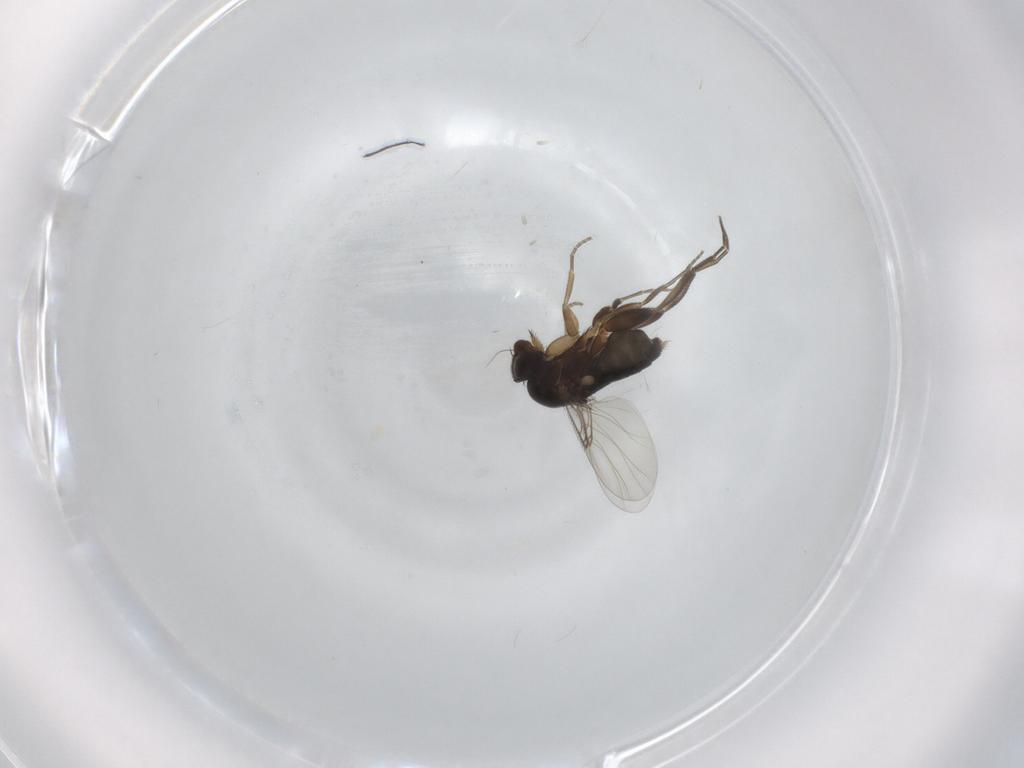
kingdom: Animalia
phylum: Arthropoda
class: Insecta
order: Diptera
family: Phoridae
